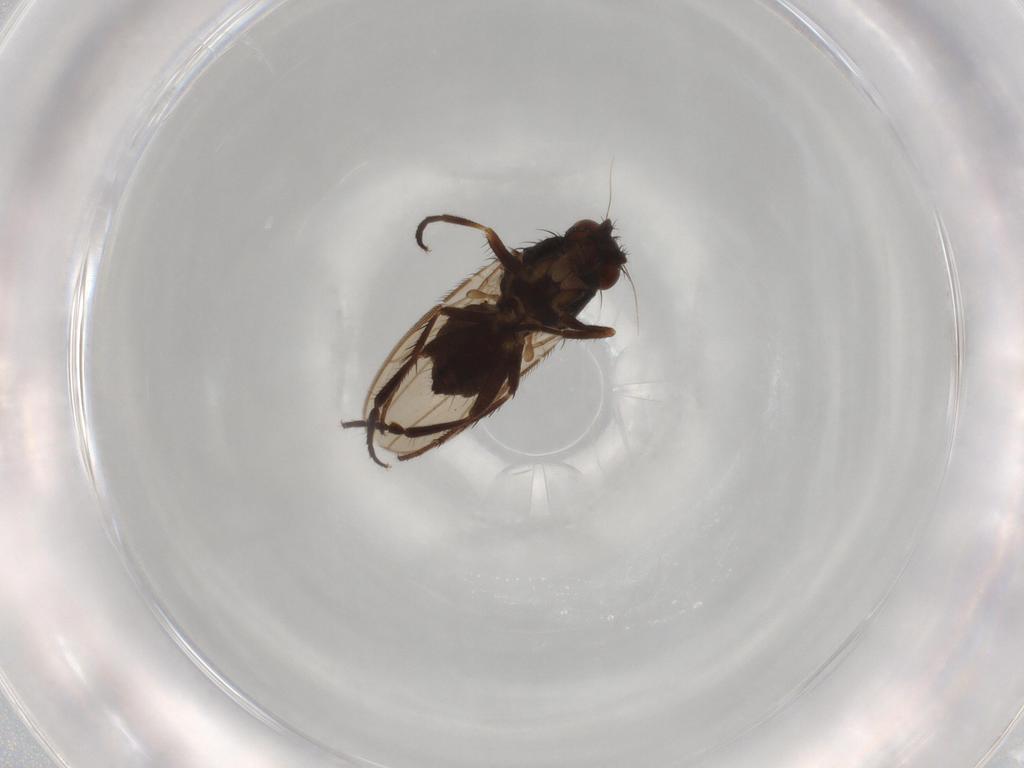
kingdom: Animalia
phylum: Arthropoda
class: Insecta
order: Diptera
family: Sphaeroceridae
